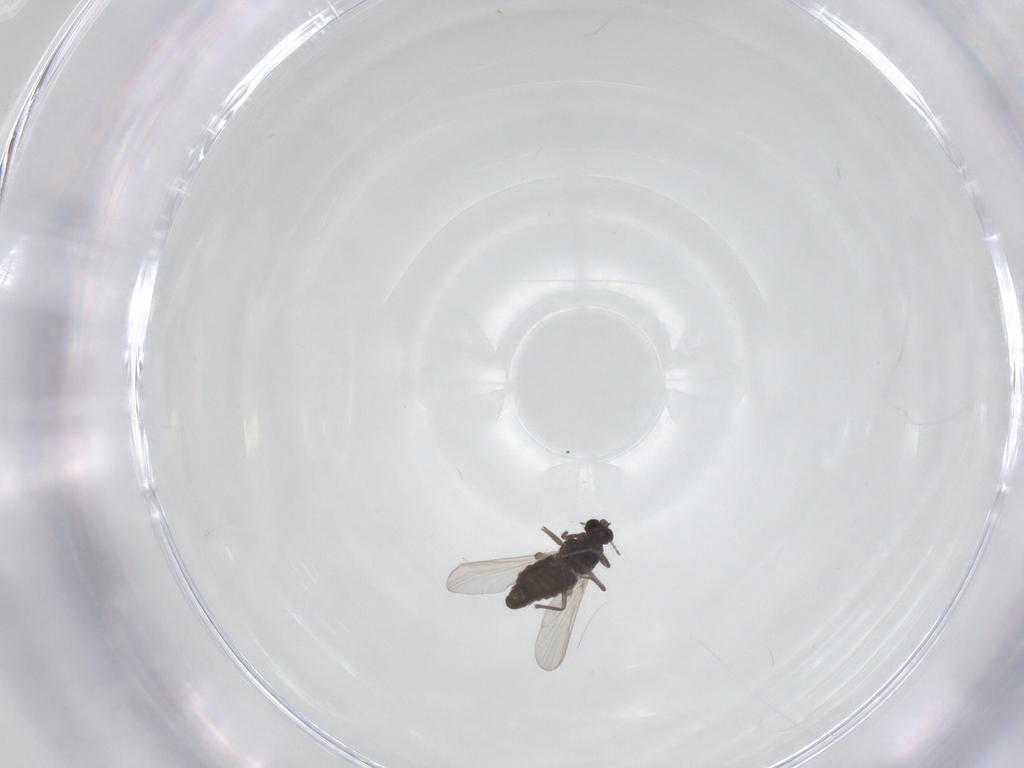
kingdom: Animalia
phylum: Arthropoda
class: Insecta
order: Diptera
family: Chironomidae
